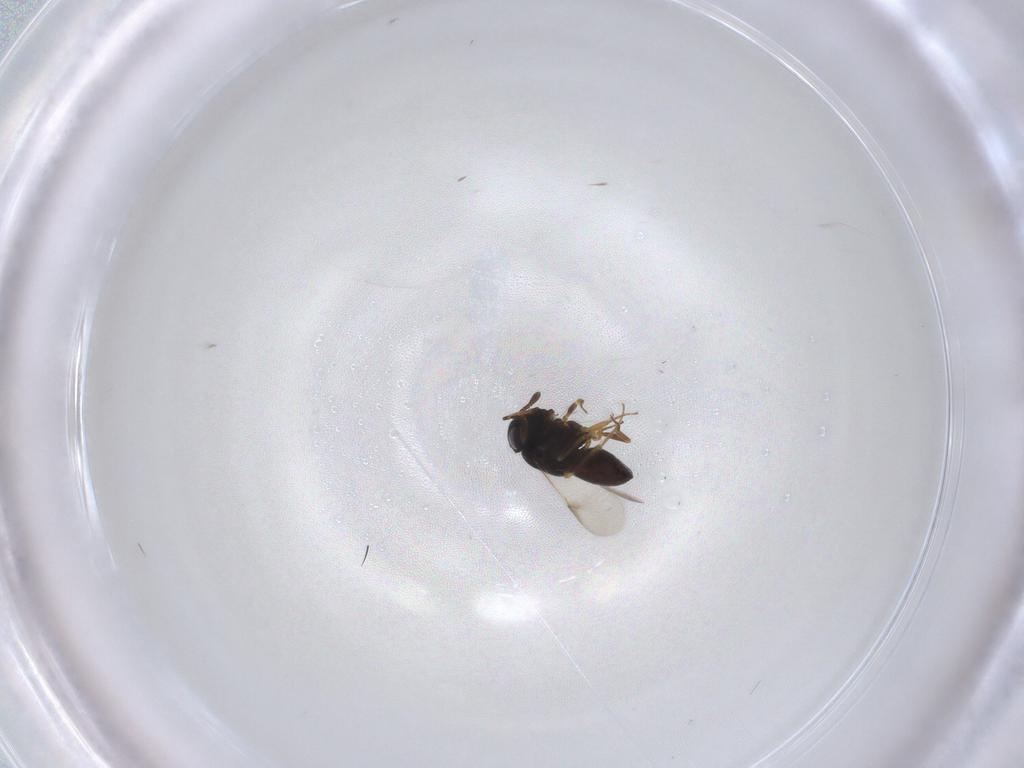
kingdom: Animalia
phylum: Arthropoda
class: Insecta
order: Hymenoptera
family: Scelionidae
